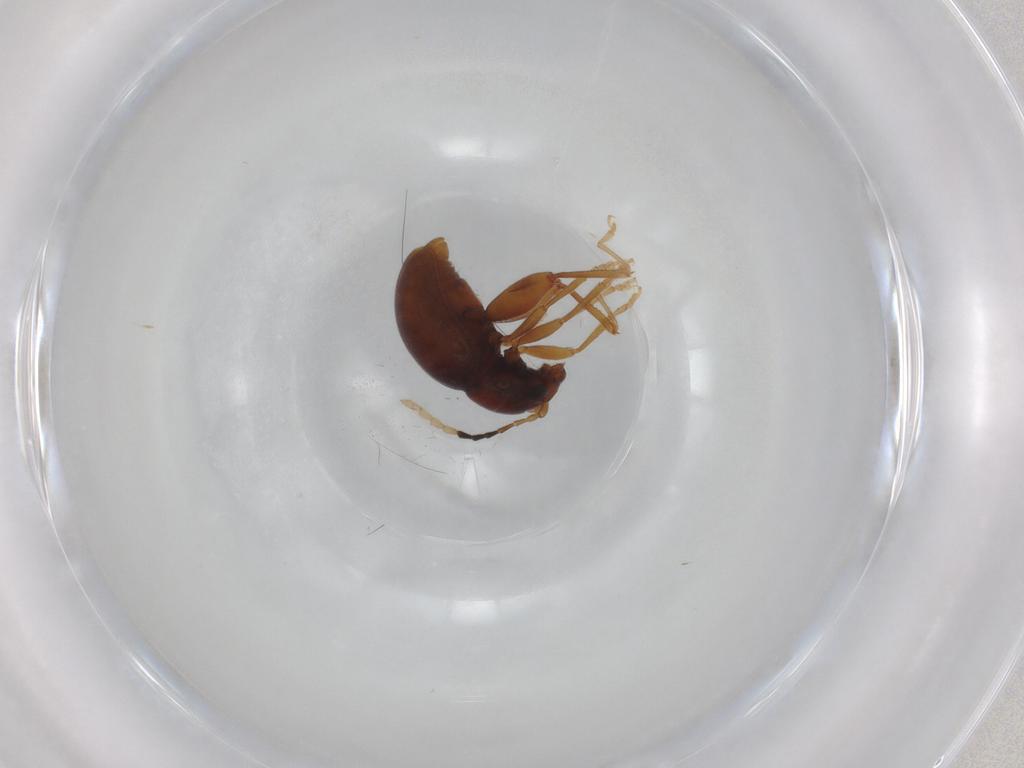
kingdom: Animalia
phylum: Arthropoda
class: Insecta
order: Coleoptera
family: Chrysomelidae
